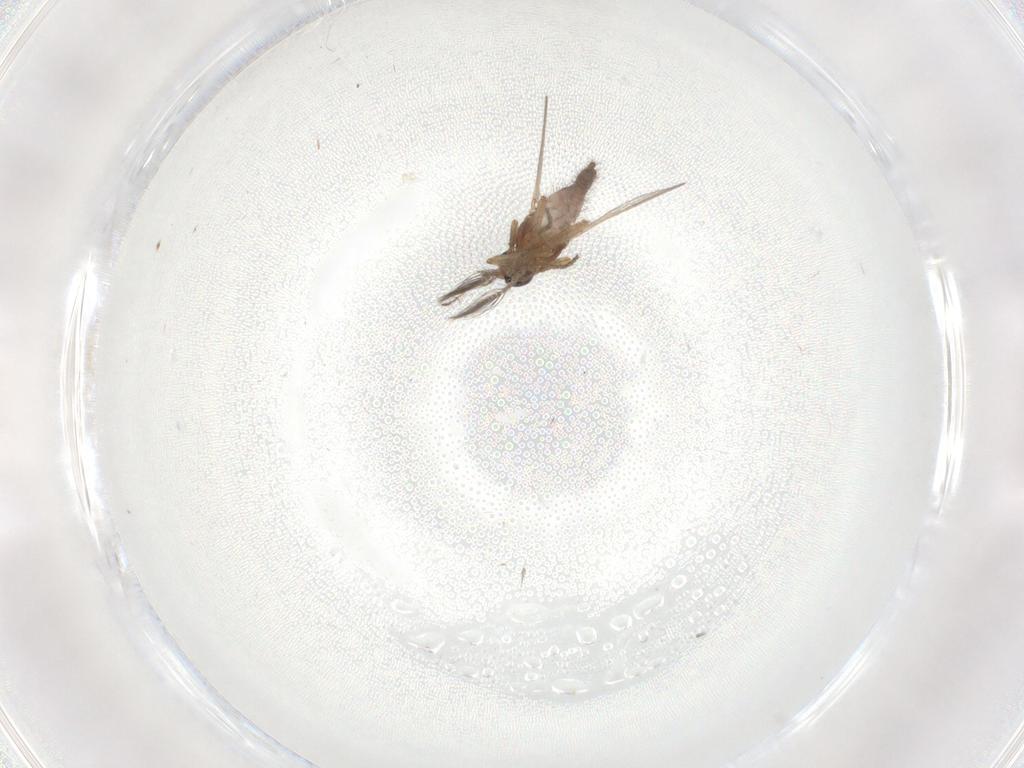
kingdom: Animalia
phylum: Arthropoda
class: Insecta
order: Diptera
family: Ceratopogonidae
